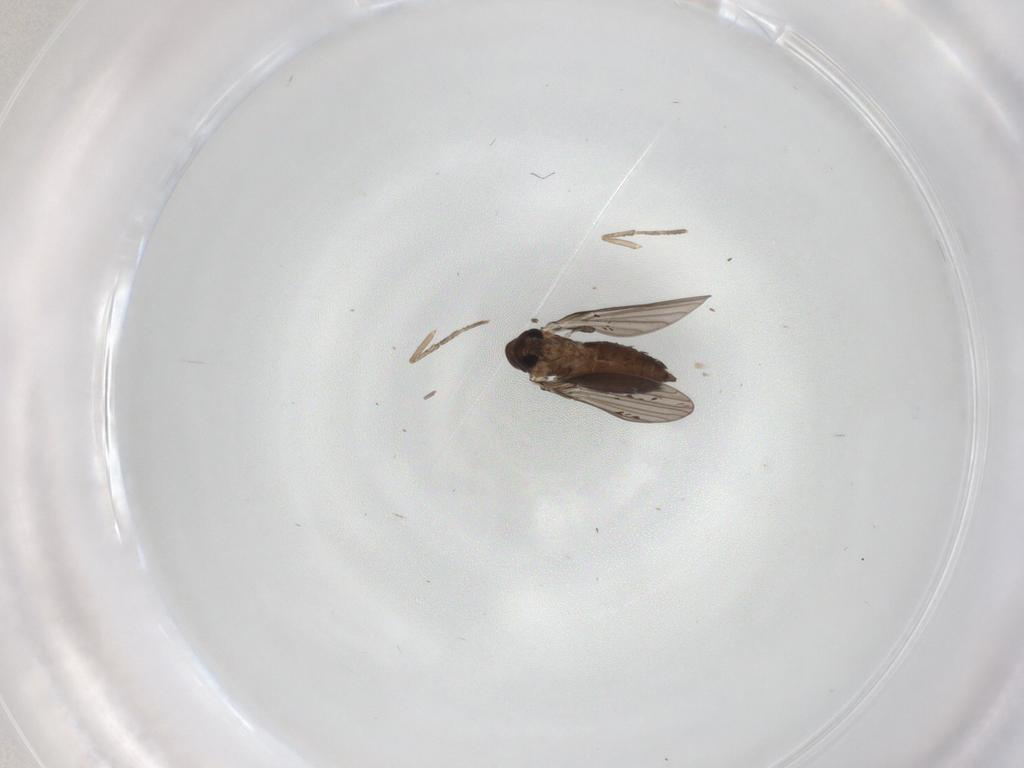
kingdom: Animalia
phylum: Arthropoda
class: Insecta
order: Diptera
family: Phoridae
